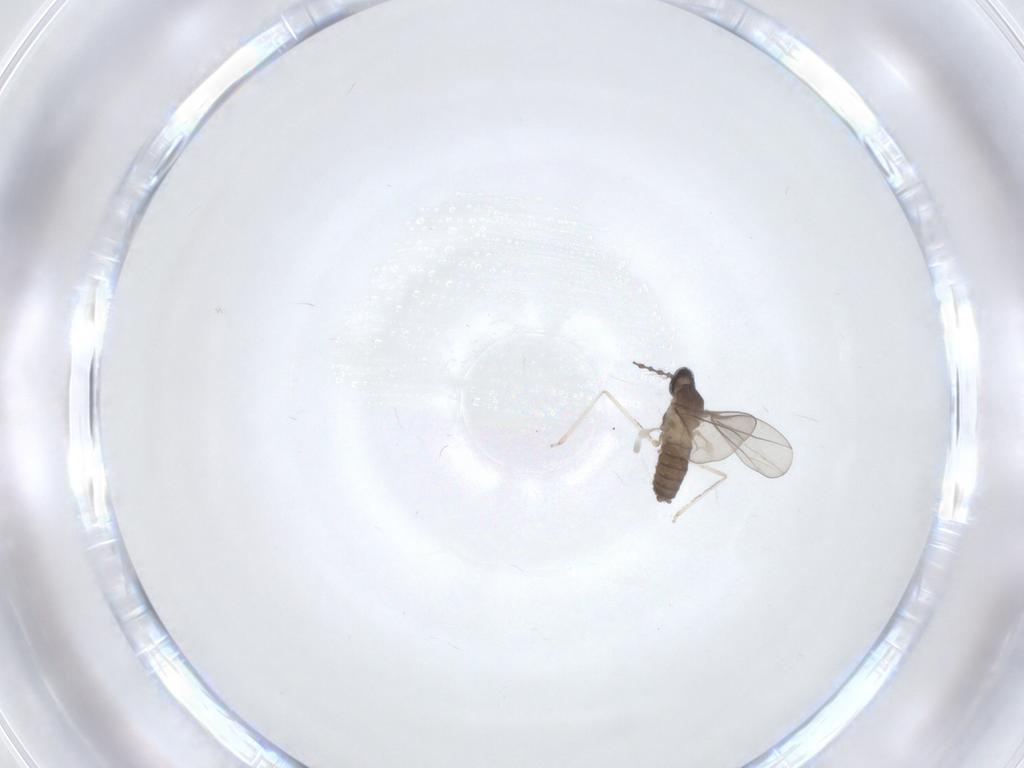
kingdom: Animalia
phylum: Arthropoda
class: Insecta
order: Diptera
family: Cecidomyiidae
